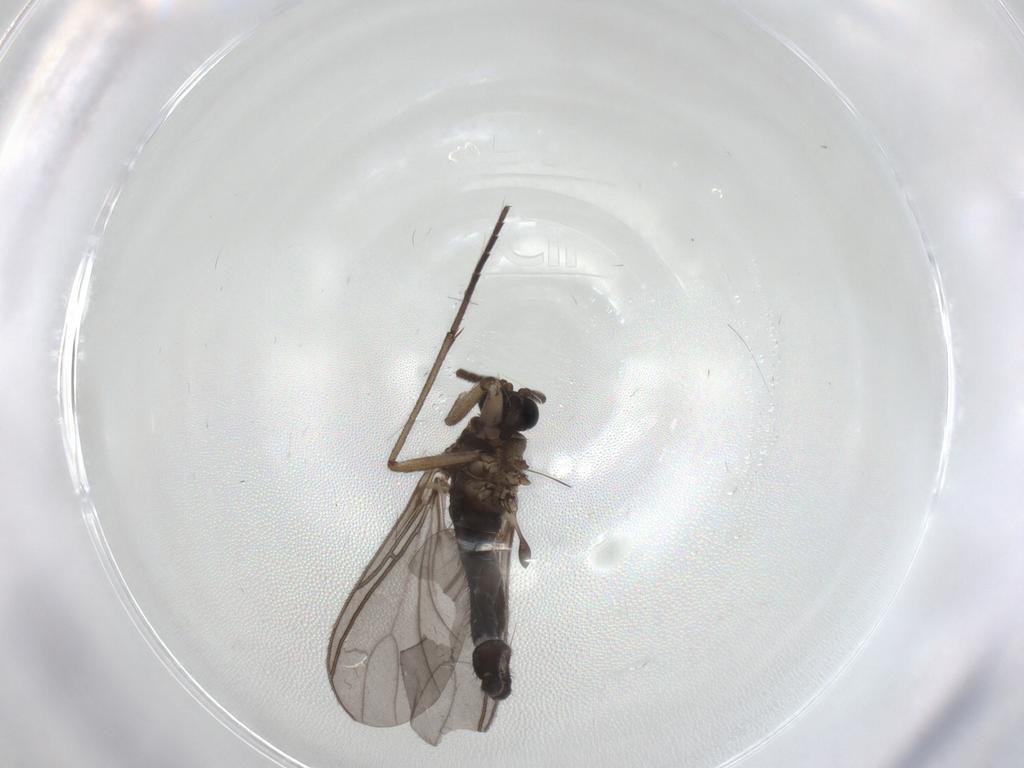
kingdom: Animalia
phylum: Arthropoda
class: Insecta
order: Diptera
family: Sciaridae
